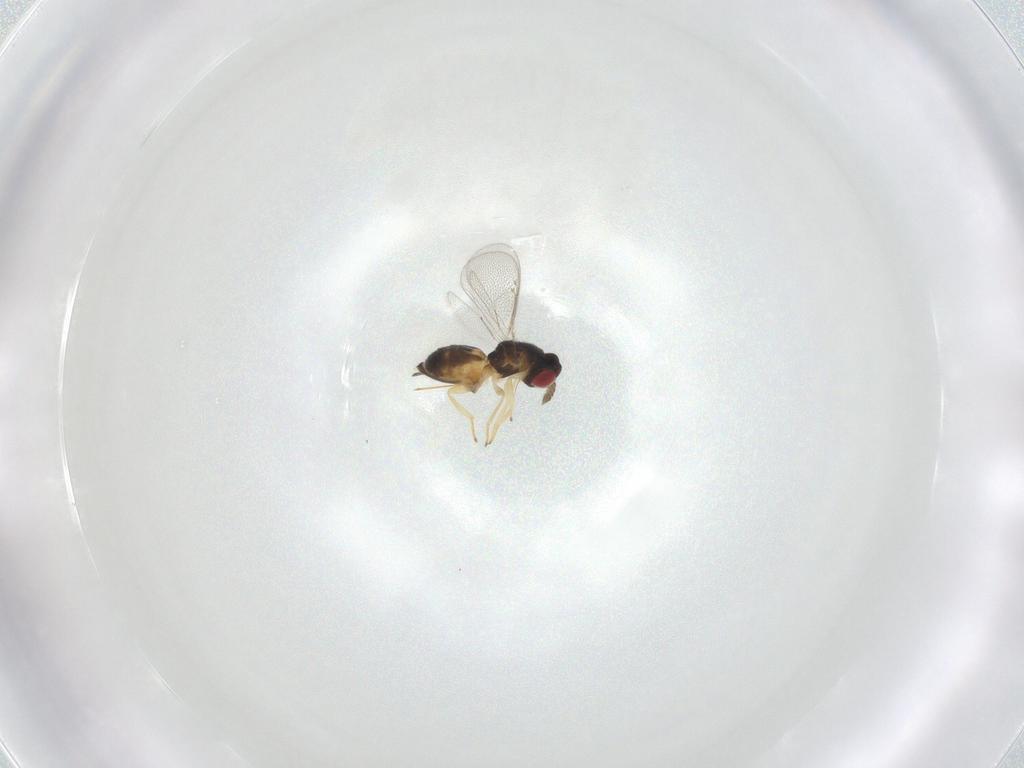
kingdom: Animalia
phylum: Arthropoda
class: Insecta
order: Hymenoptera
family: Eulophidae
